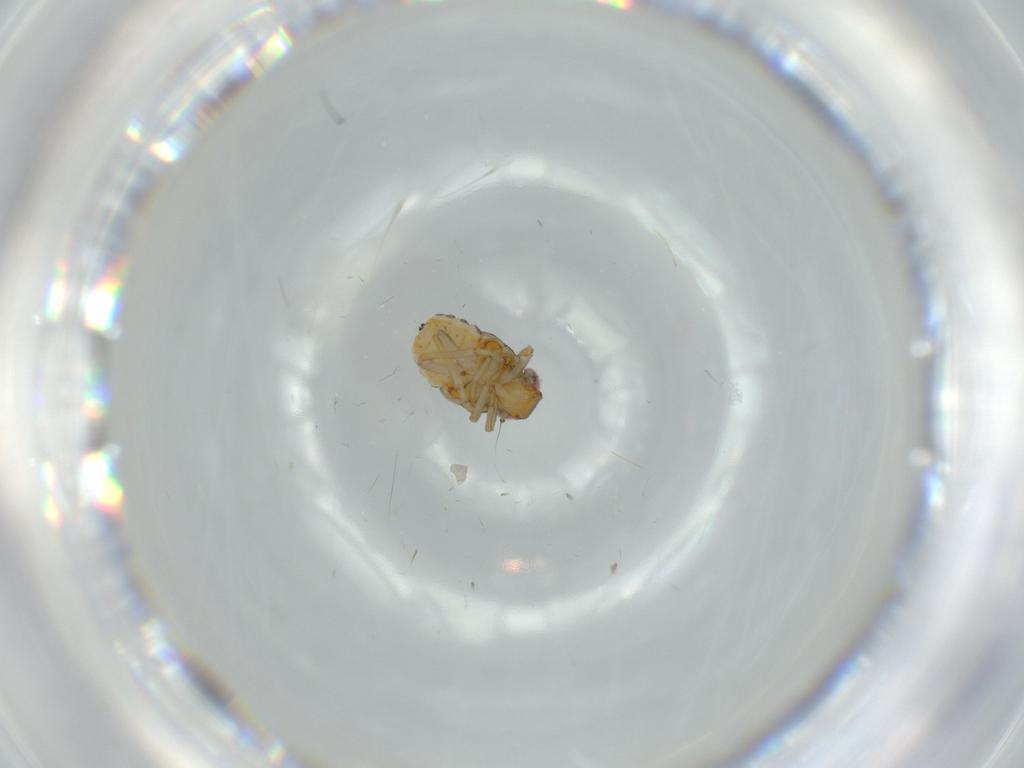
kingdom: Animalia
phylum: Arthropoda
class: Insecta
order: Hemiptera
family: Issidae
